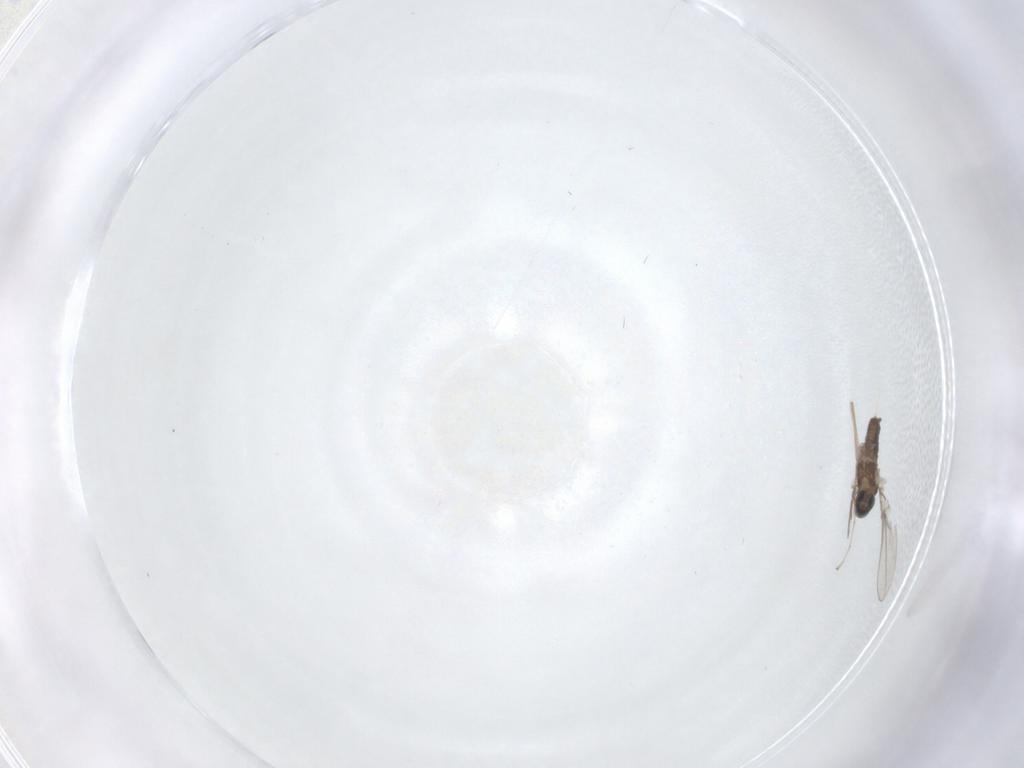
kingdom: Animalia
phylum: Arthropoda
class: Insecta
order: Diptera
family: Cecidomyiidae
